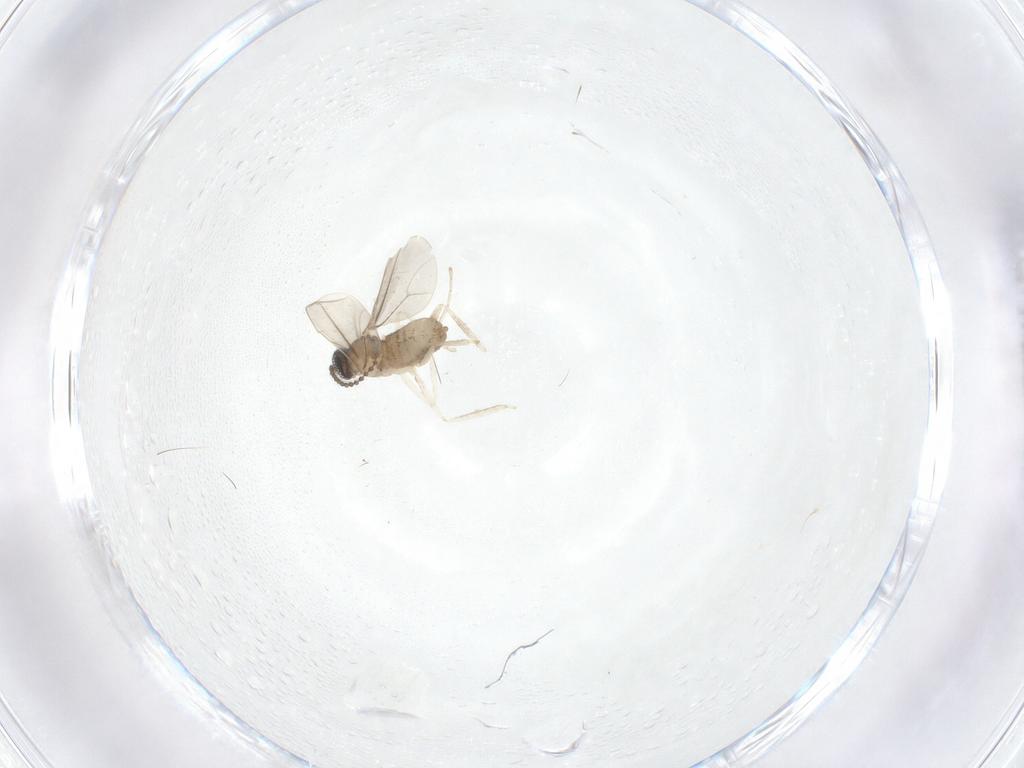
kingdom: Animalia
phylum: Arthropoda
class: Insecta
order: Diptera
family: Cecidomyiidae
